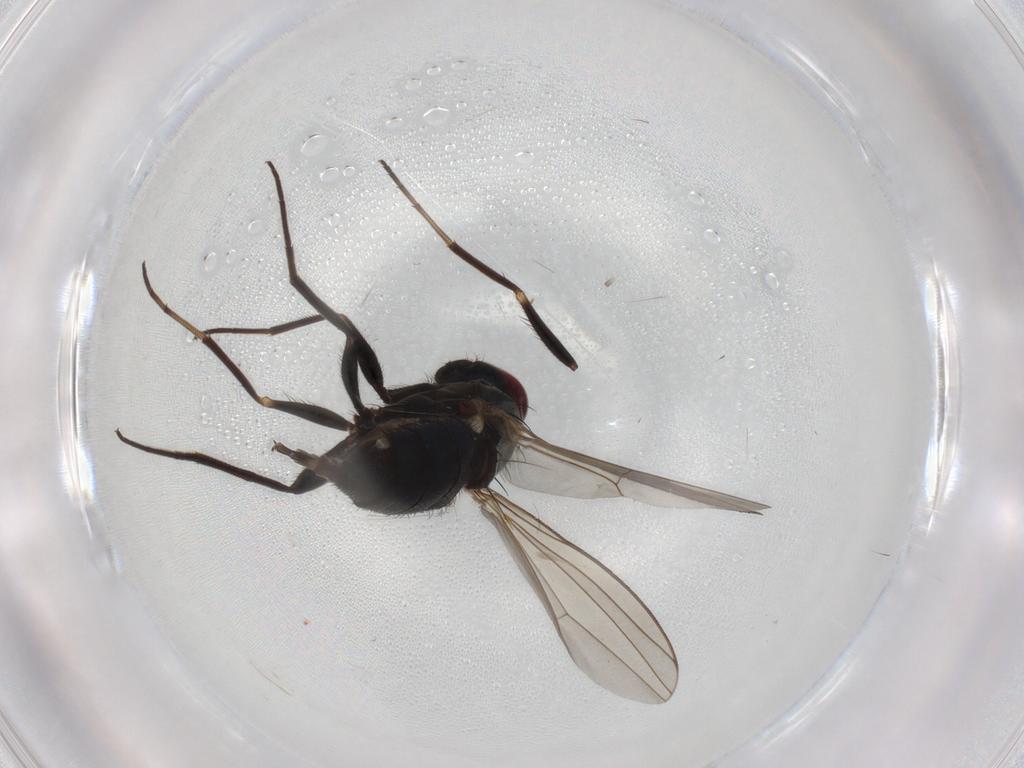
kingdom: Animalia
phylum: Arthropoda
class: Insecta
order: Diptera
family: Dolichopodidae
